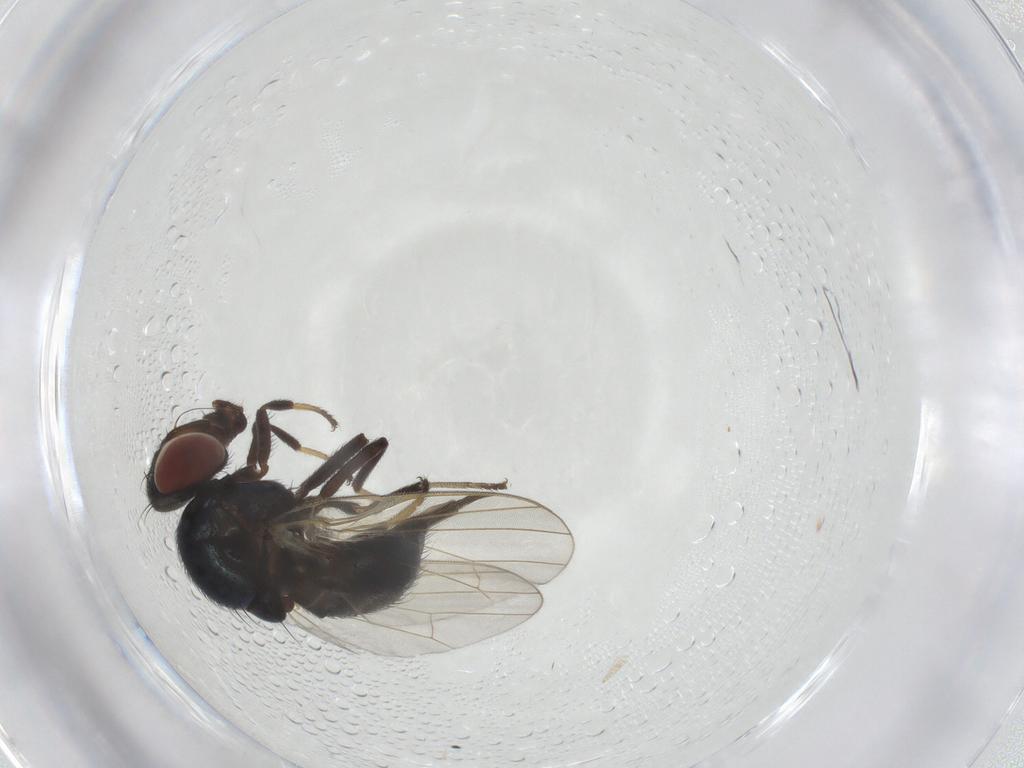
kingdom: Animalia
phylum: Arthropoda
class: Insecta
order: Diptera
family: Lonchaeidae
